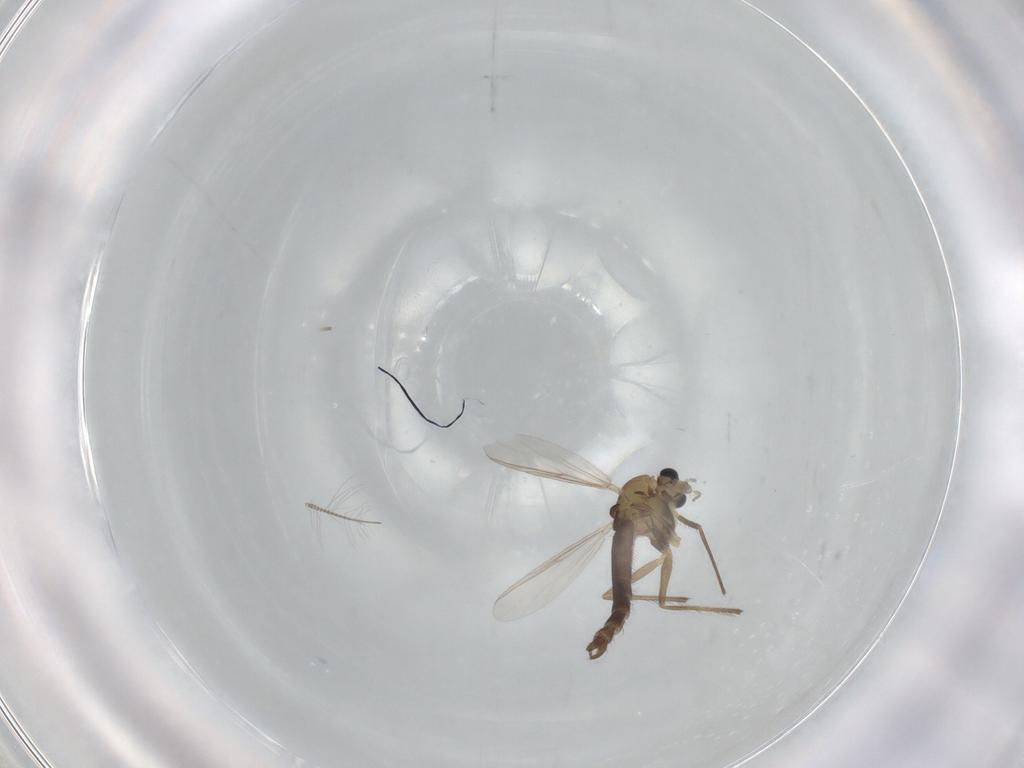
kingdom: Animalia
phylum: Arthropoda
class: Insecta
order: Diptera
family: Chironomidae
